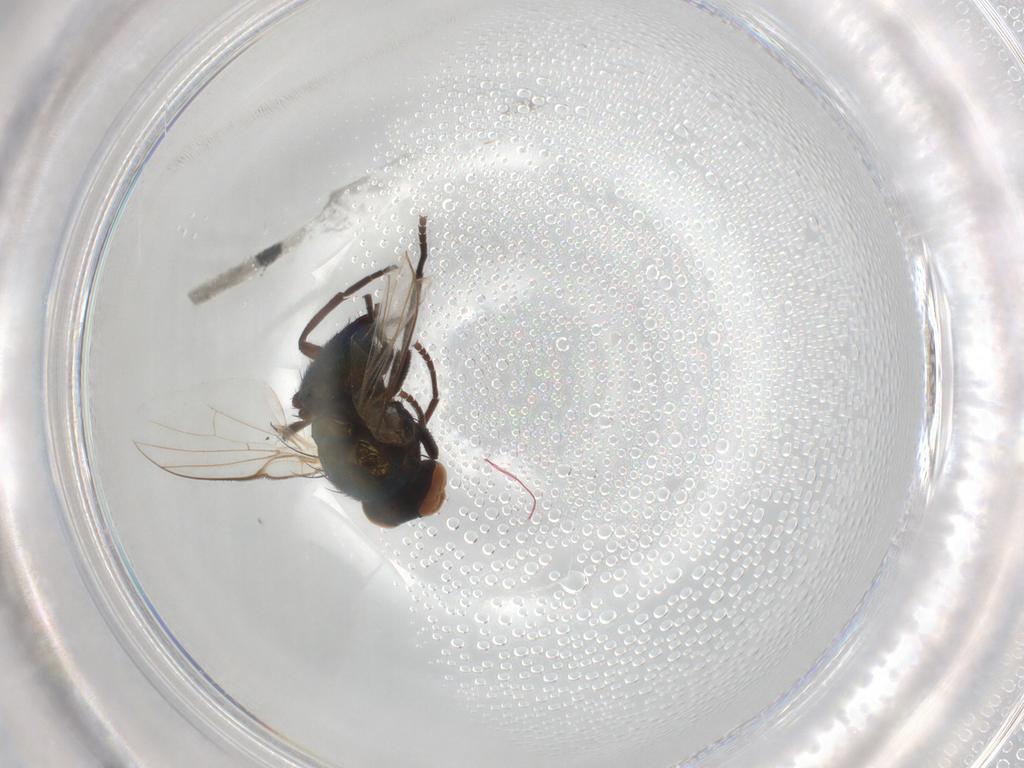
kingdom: Animalia
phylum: Arthropoda
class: Insecta
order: Diptera
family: Agromyzidae
